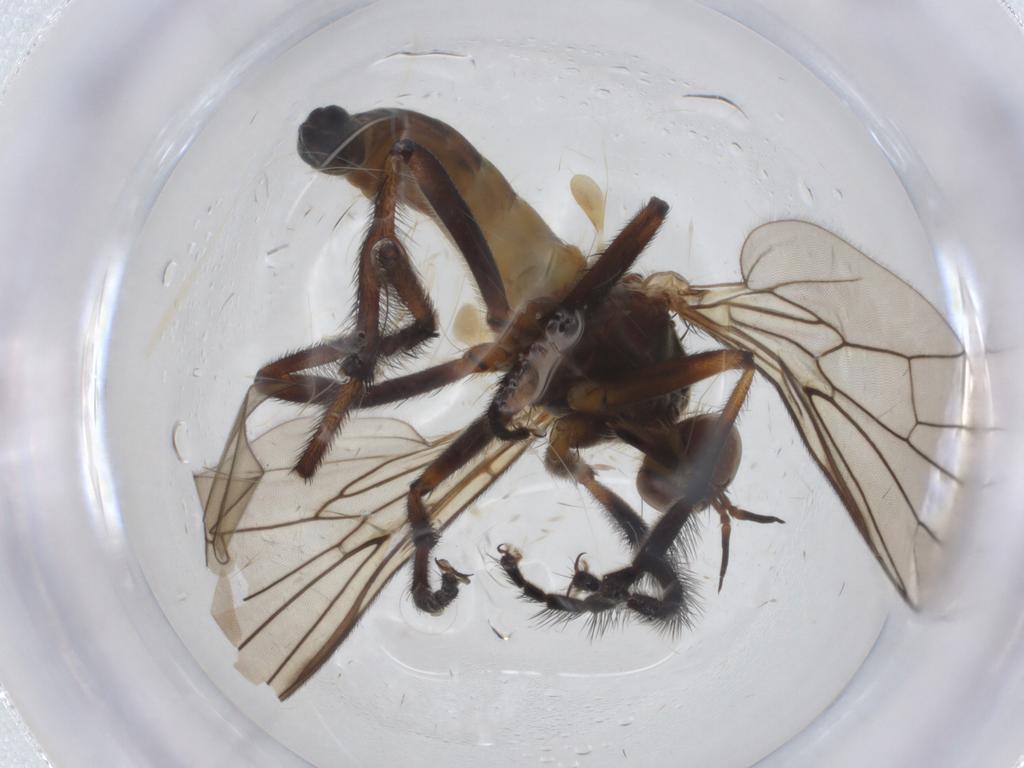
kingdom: Animalia
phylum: Arthropoda
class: Insecta
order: Diptera
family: Empididae
